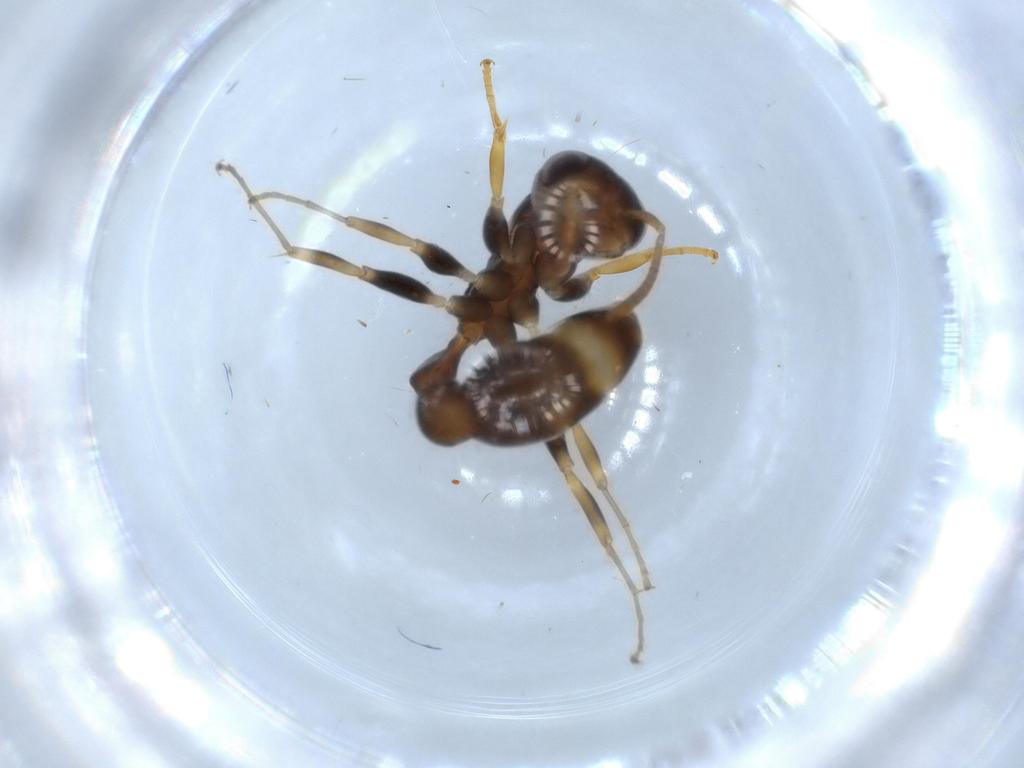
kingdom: Animalia
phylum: Arthropoda
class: Insecta
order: Hymenoptera
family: Formicidae
